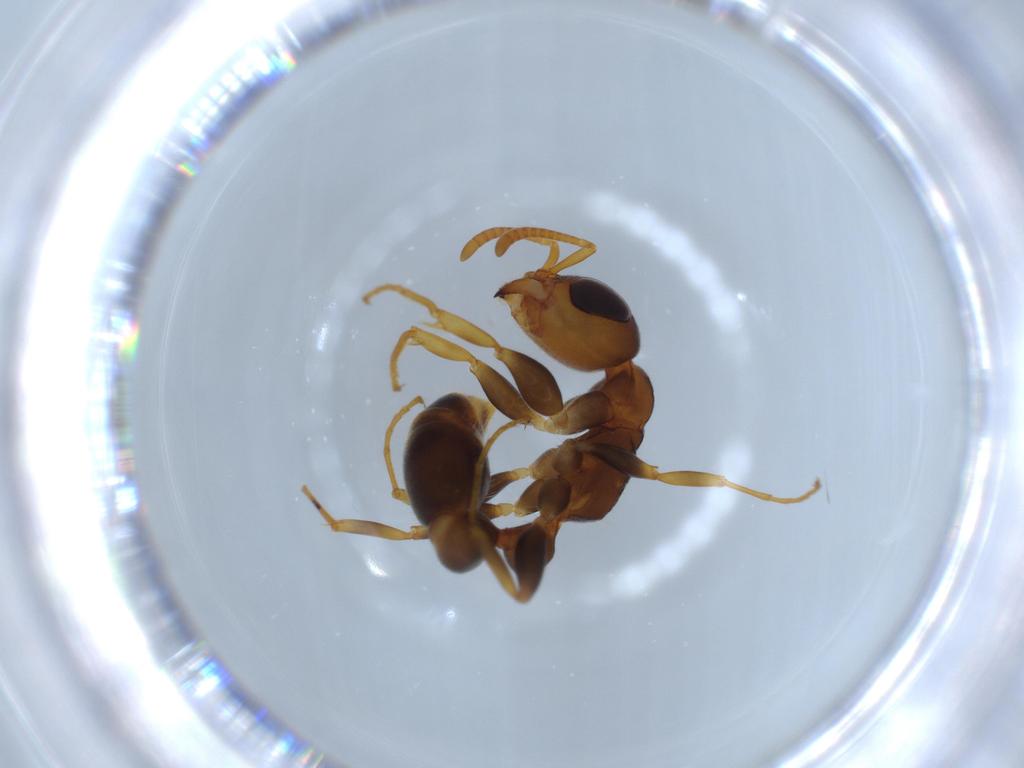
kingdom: Animalia
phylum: Arthropoda
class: Insecta
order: Hymenoptera
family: Formicidae
